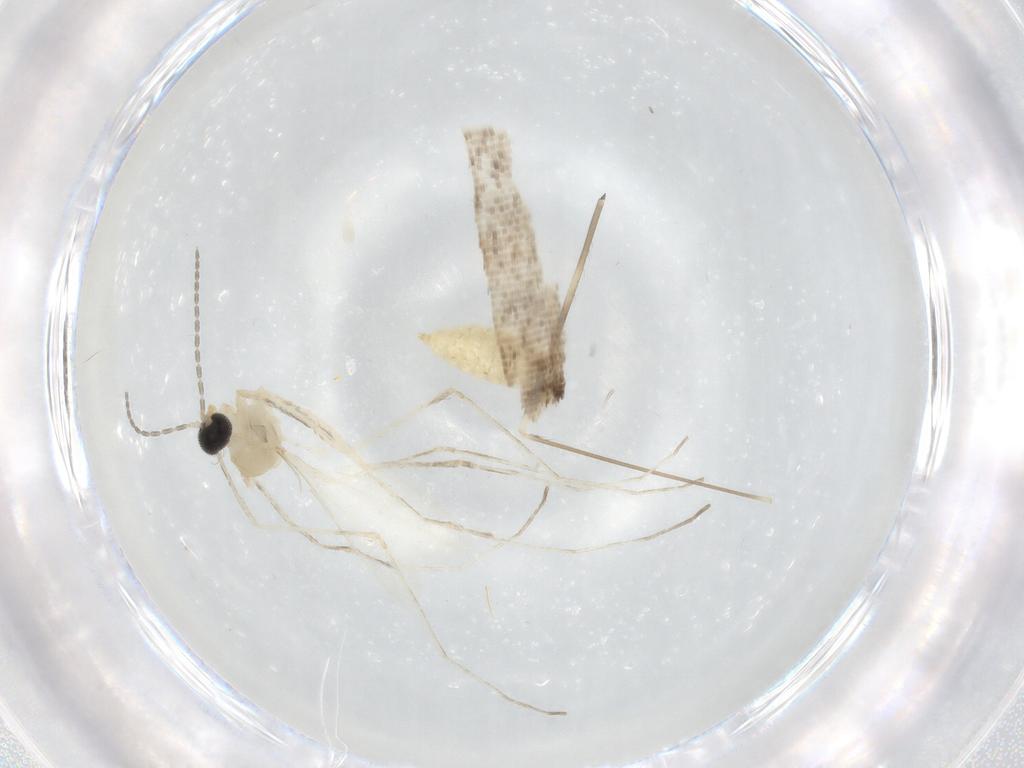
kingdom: Animalia
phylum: Arthropoda
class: Insecta
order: Diptera
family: Cecidomyiidae
